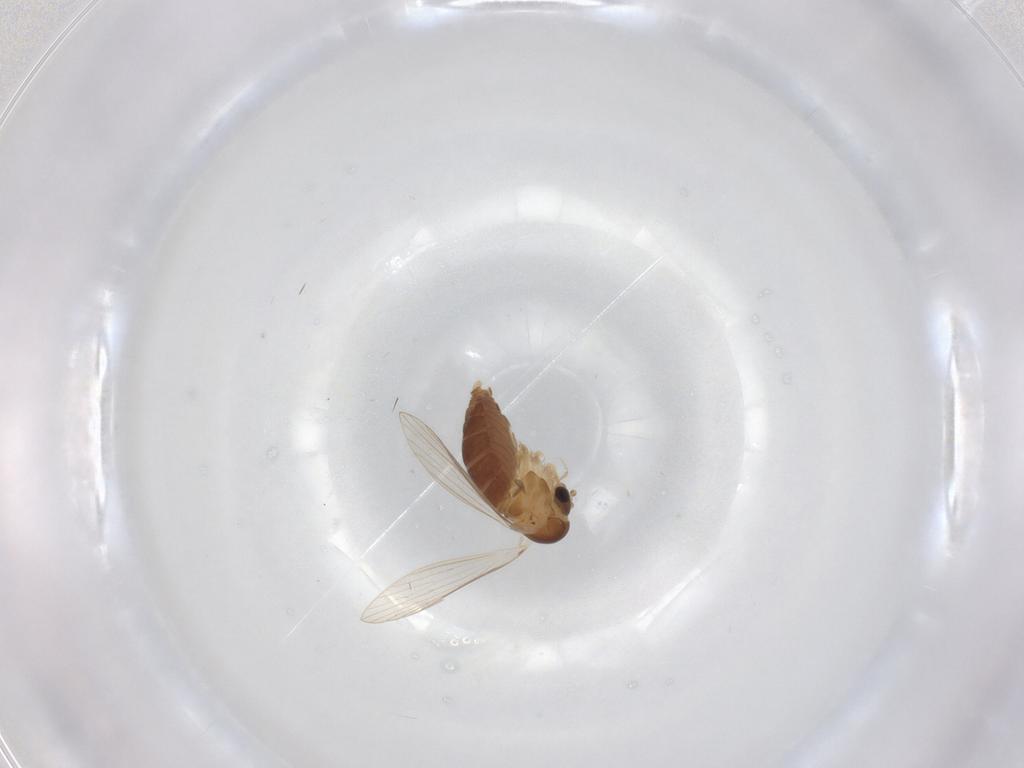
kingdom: Animalia
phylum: Arthropoda
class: Insecta
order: Diptera
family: Psychodidae
